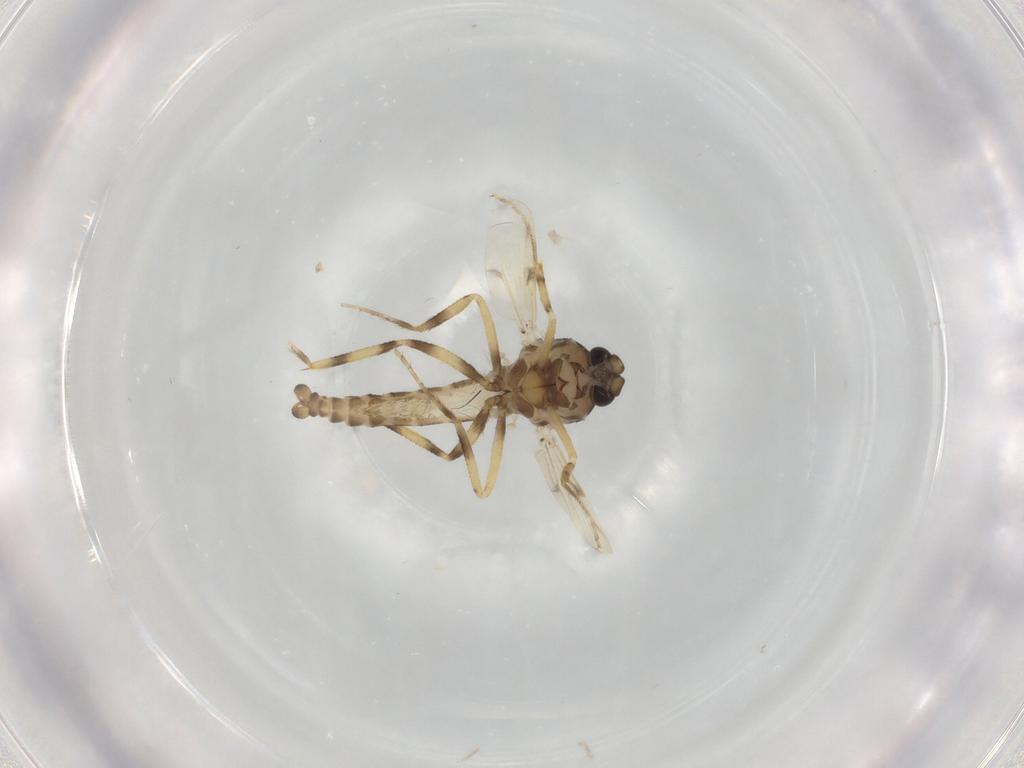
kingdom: Animalia
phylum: Arthropoda
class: Insecta
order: Diptera
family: Ceratopogonidae
